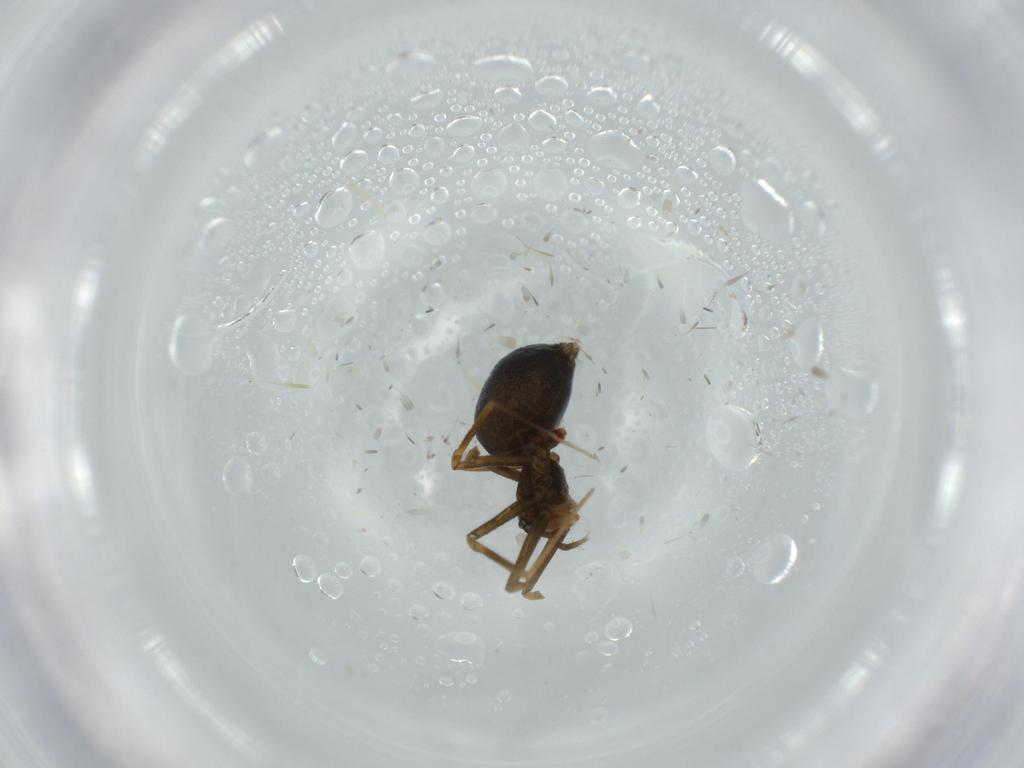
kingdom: Animalia
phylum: Arthropoda
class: Arachnida
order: Araneae
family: Linyphiidae
